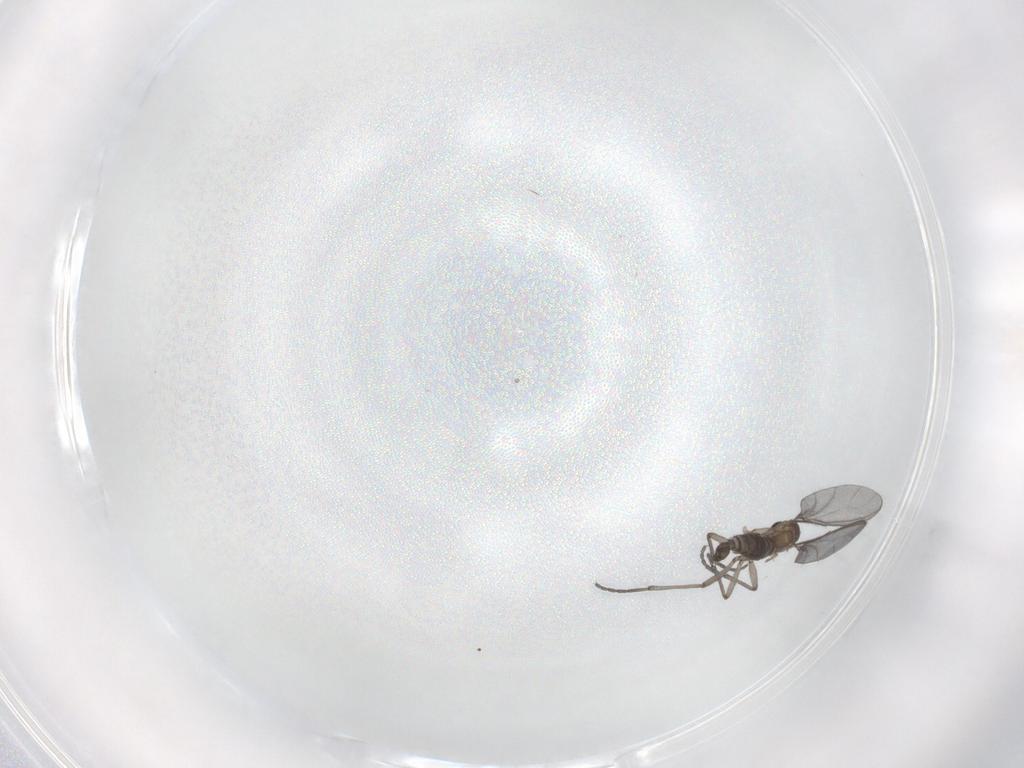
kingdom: Animalia
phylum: Arthropoda
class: Insecta
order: Diptera
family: Sciaridae
